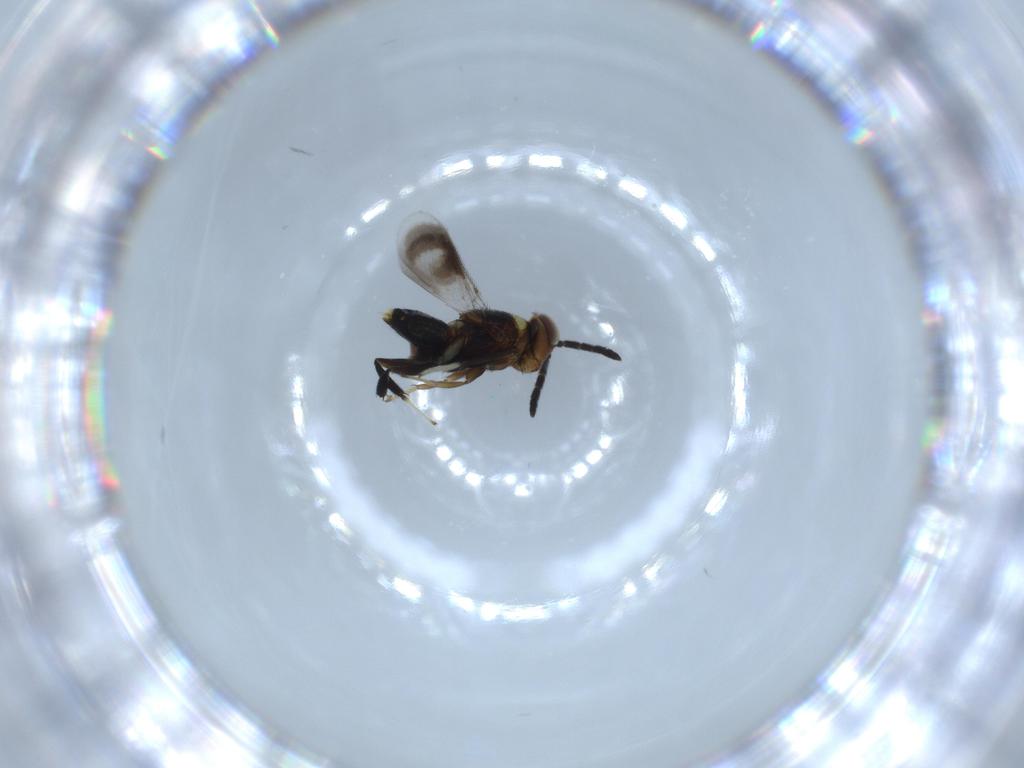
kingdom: Animalia
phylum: Arthropoda
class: Insecta
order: Hymenoptera
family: Aphelinidae
